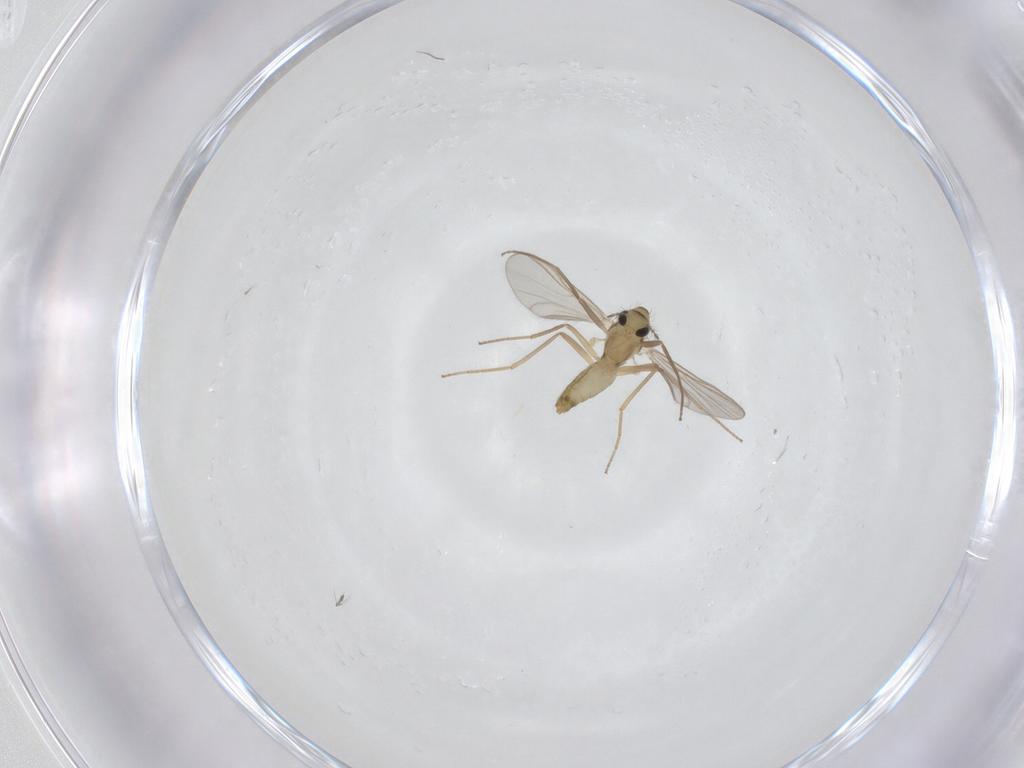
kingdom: Animalia
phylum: Arthropoda
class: Insecta
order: Diptera
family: Chironomidae
